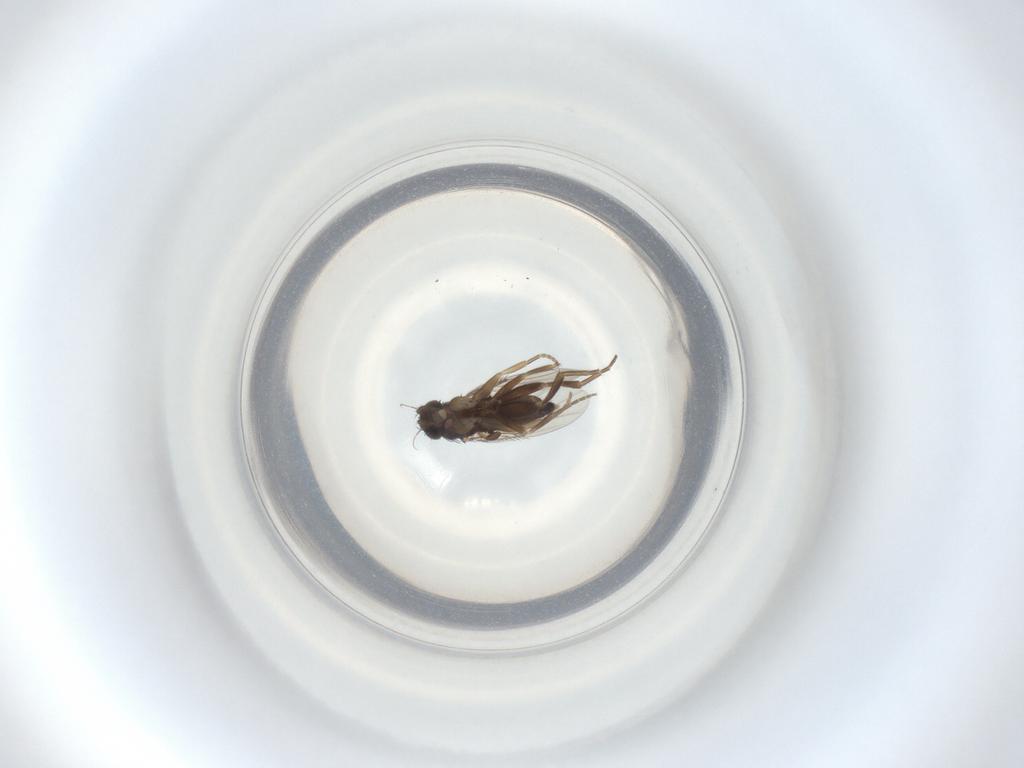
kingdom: Animalia
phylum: Arthropoda
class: Insecta
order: Diptera
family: Phoridae
